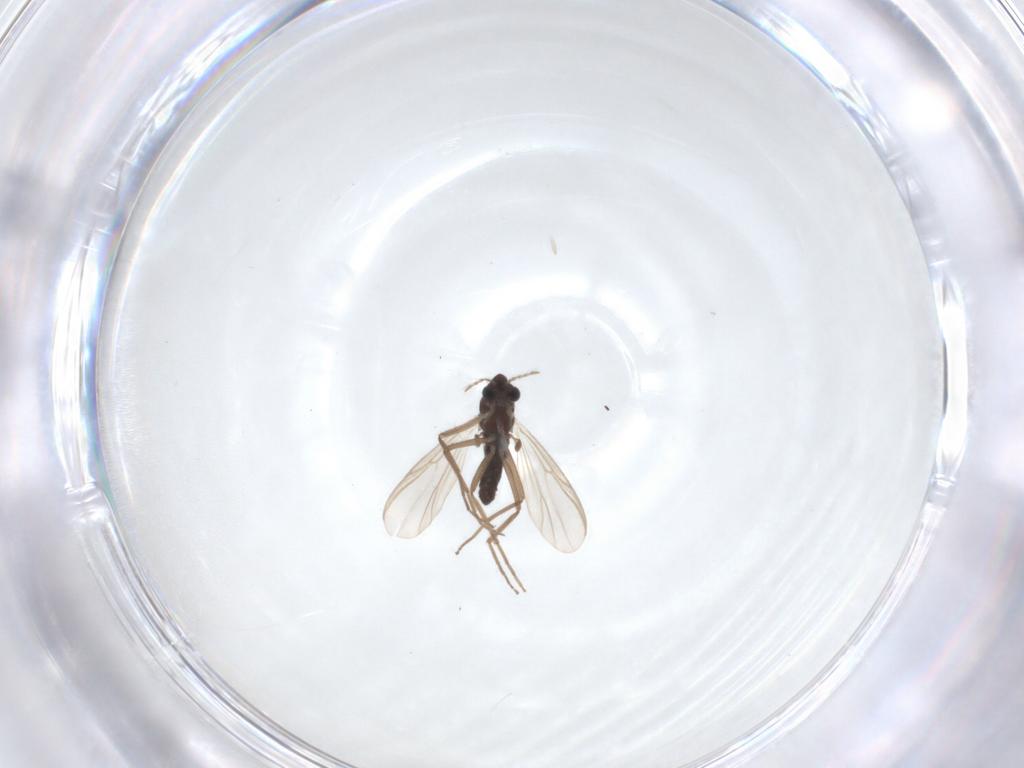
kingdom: Animalia
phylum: Arthropoda
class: Insecta
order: Diptera
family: Chironomidae
